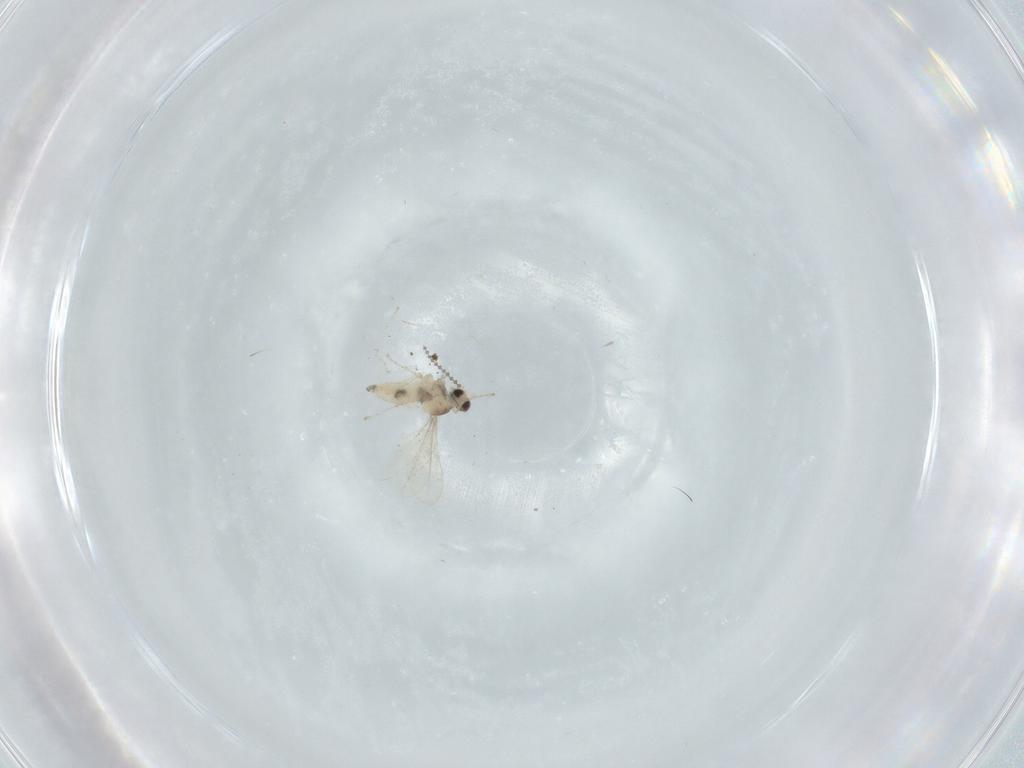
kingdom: Animalia
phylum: Arthropoda
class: Insecta
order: Diptera
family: Cecidomyiidae
